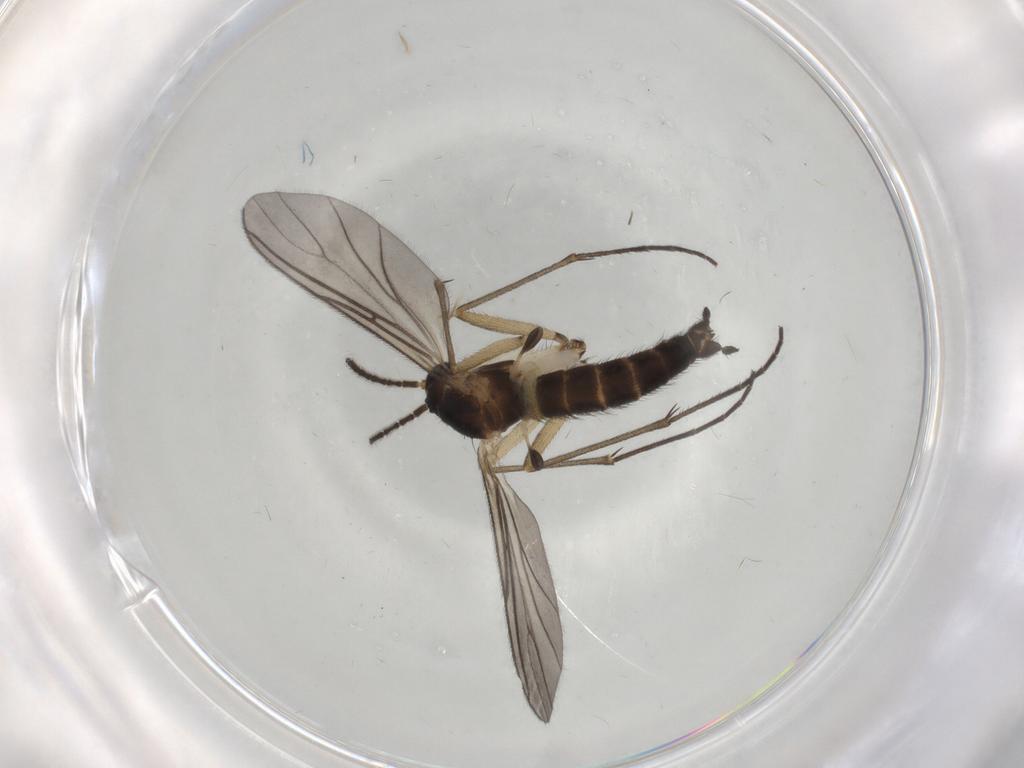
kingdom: Animalia
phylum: Arthropoda
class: Insecta
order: Diptera
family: Sciaridae
